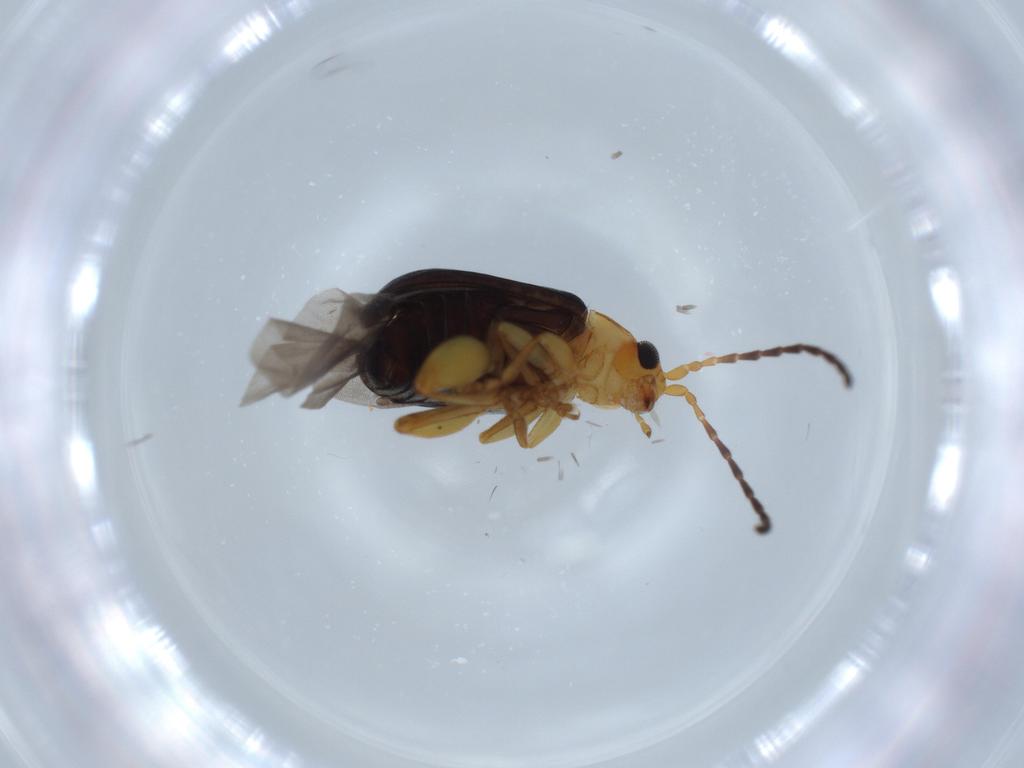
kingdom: Animalia
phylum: Arthropoda
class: Insecta
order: Coleoptera
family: Chrysomelidae
